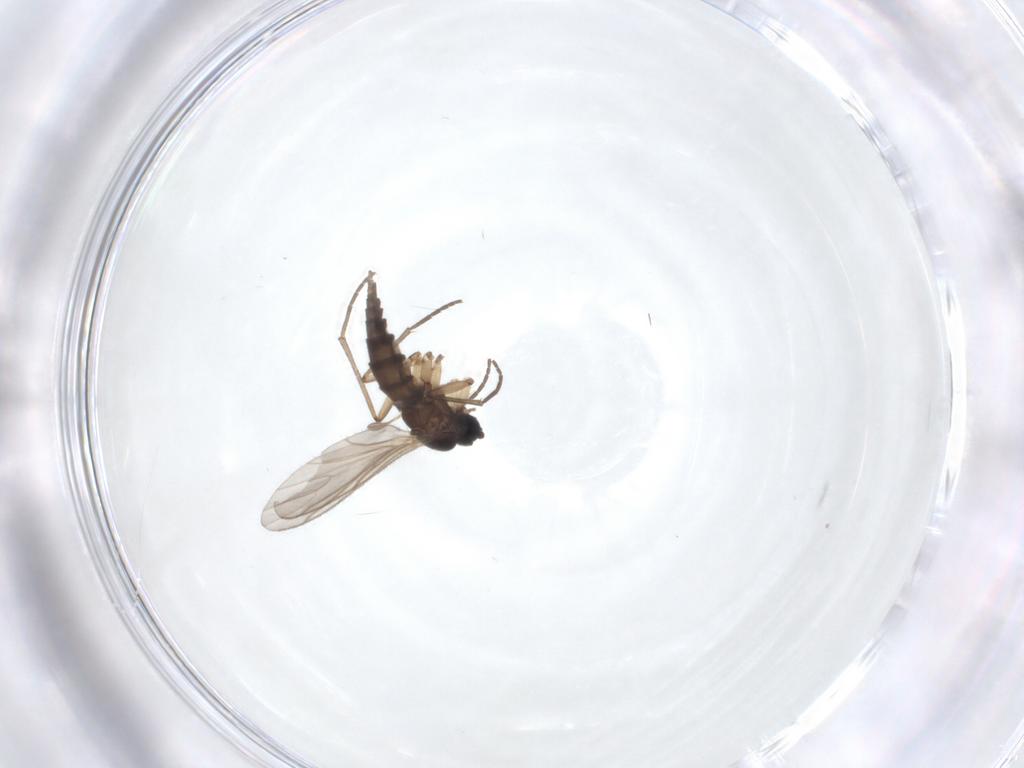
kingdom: Animalia
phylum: Arthropoda
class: Insecta
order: Diptera
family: Sciaridae
